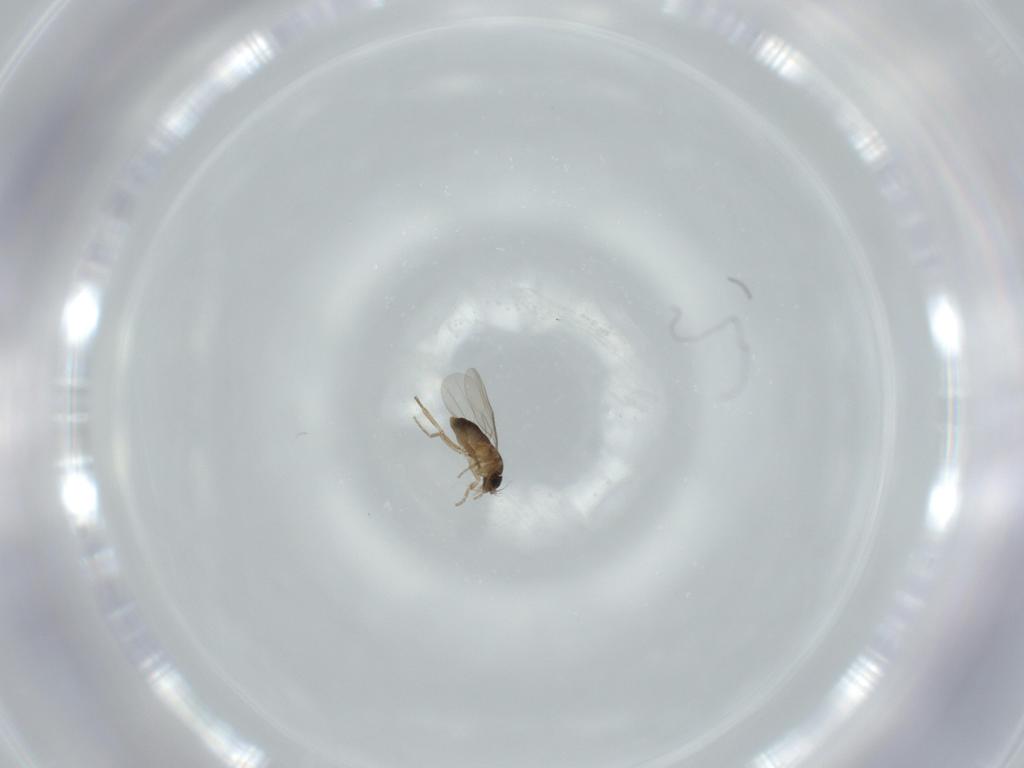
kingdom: Animalia
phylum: Arthropoda
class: Insecta
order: Diptera
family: Phoridae
